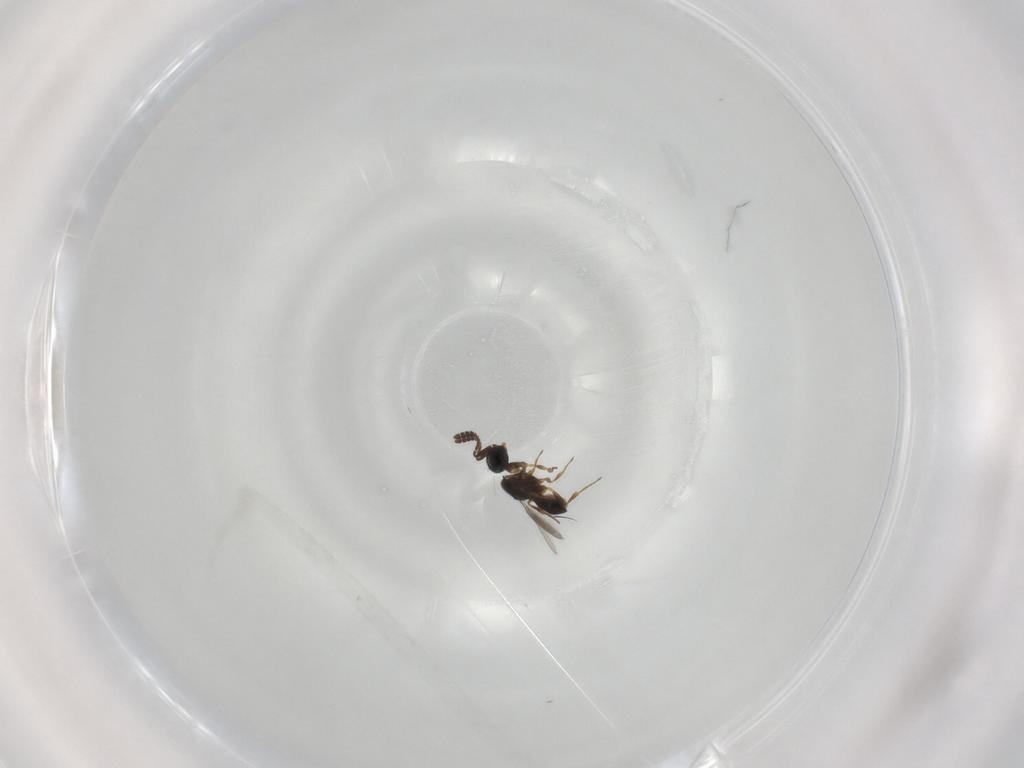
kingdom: Animalia
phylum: Arthropoda
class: Insecta
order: Hymenoptera
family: Scelionidae
